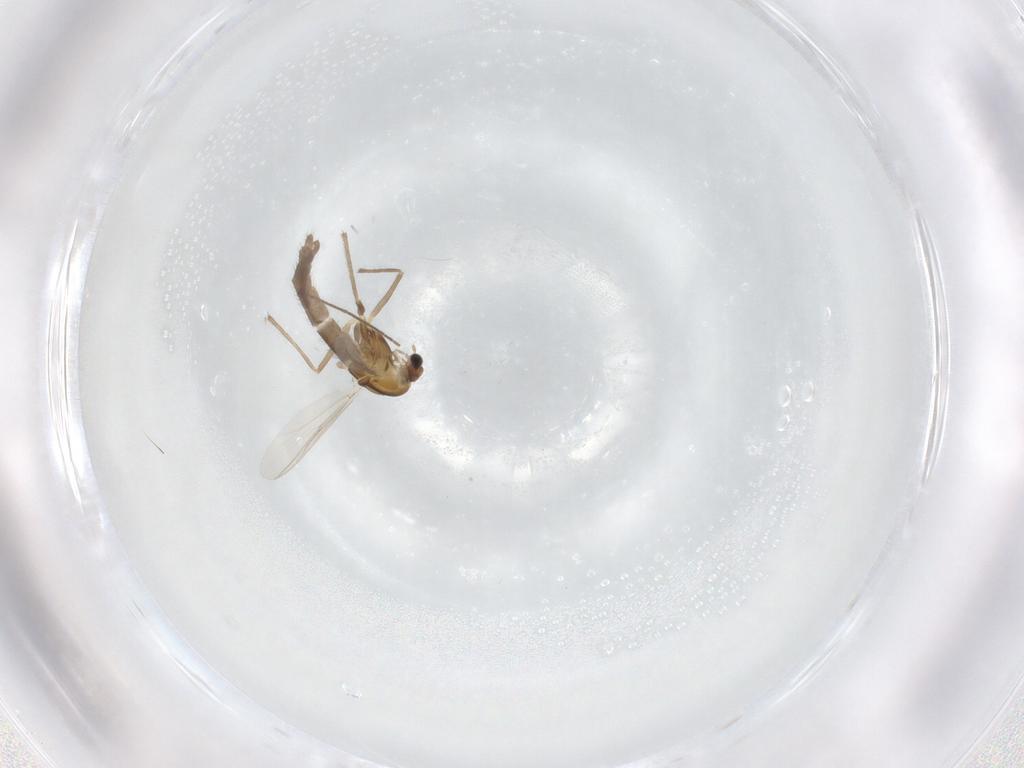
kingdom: Animalia
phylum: Arthropoda
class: Insecta
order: Diptera
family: Chironomidae
